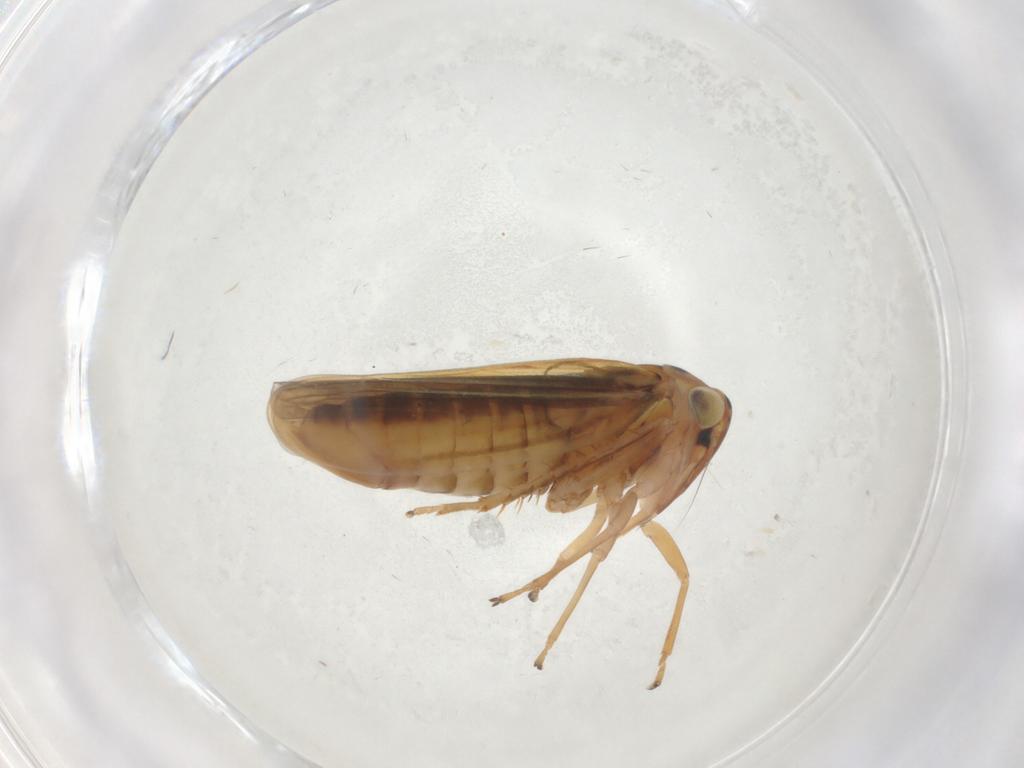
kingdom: Animalia
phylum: Arthropoda
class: Insecta
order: Hemiptera
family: Cicadellidae
